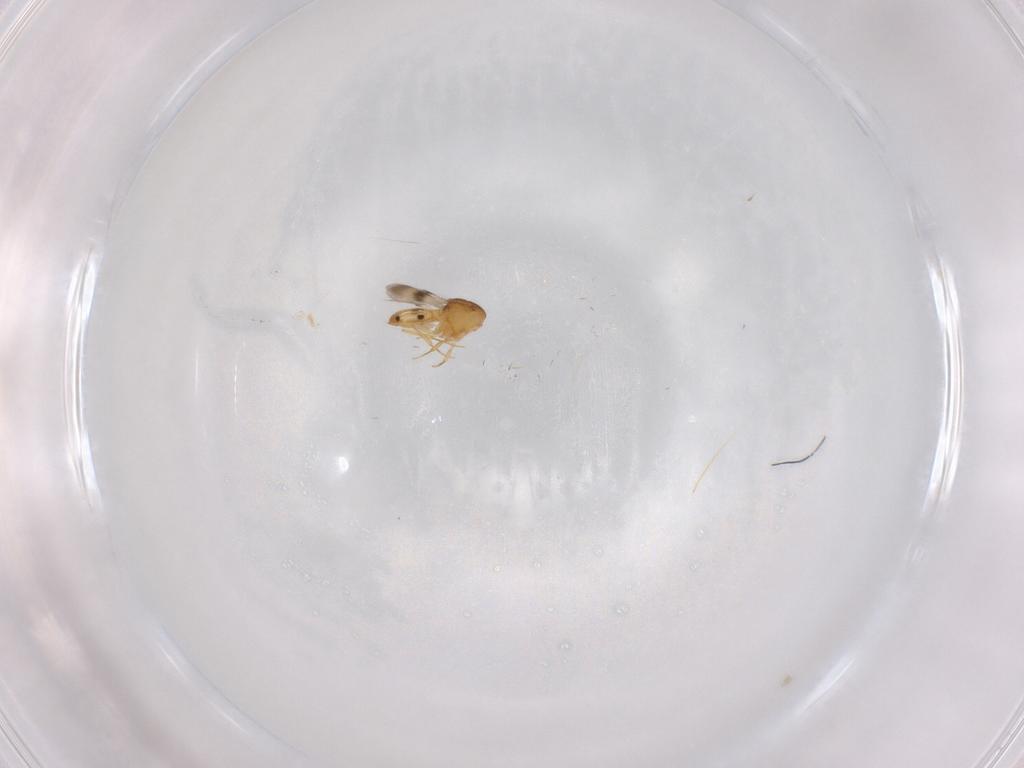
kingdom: Animalia
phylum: Arthropoda
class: Insecta
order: Hymenoptera
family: Scelionidae
